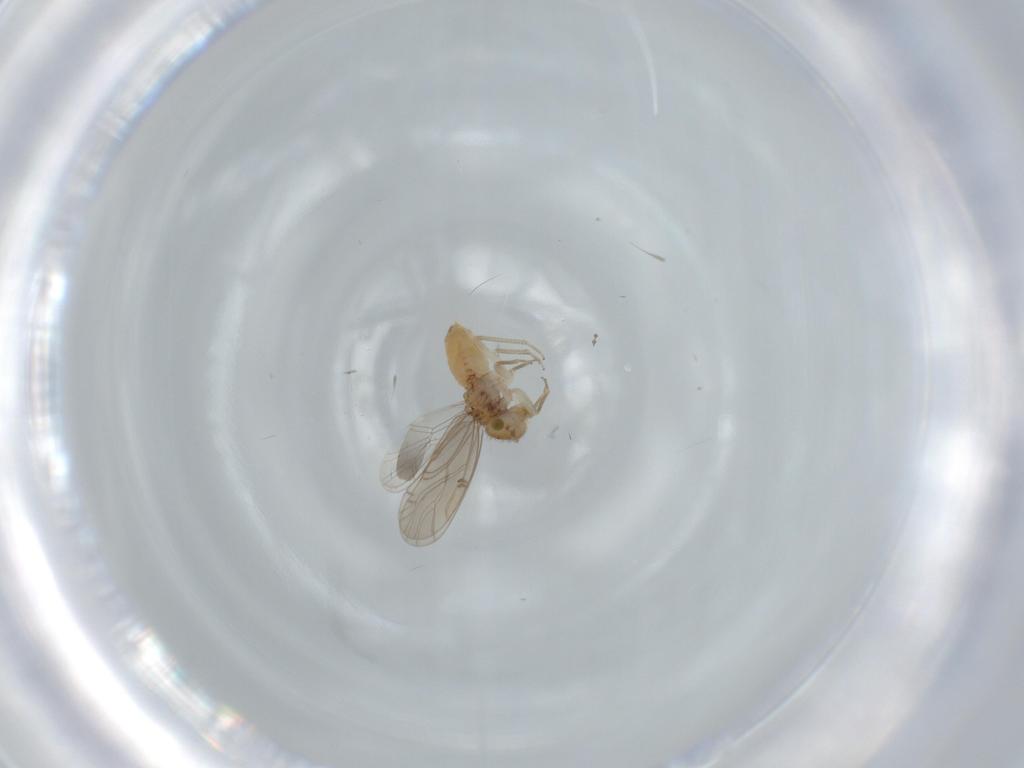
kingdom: Animalia
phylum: Arthropoda
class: Insecta
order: Psocodea
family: Ectopsocidae
